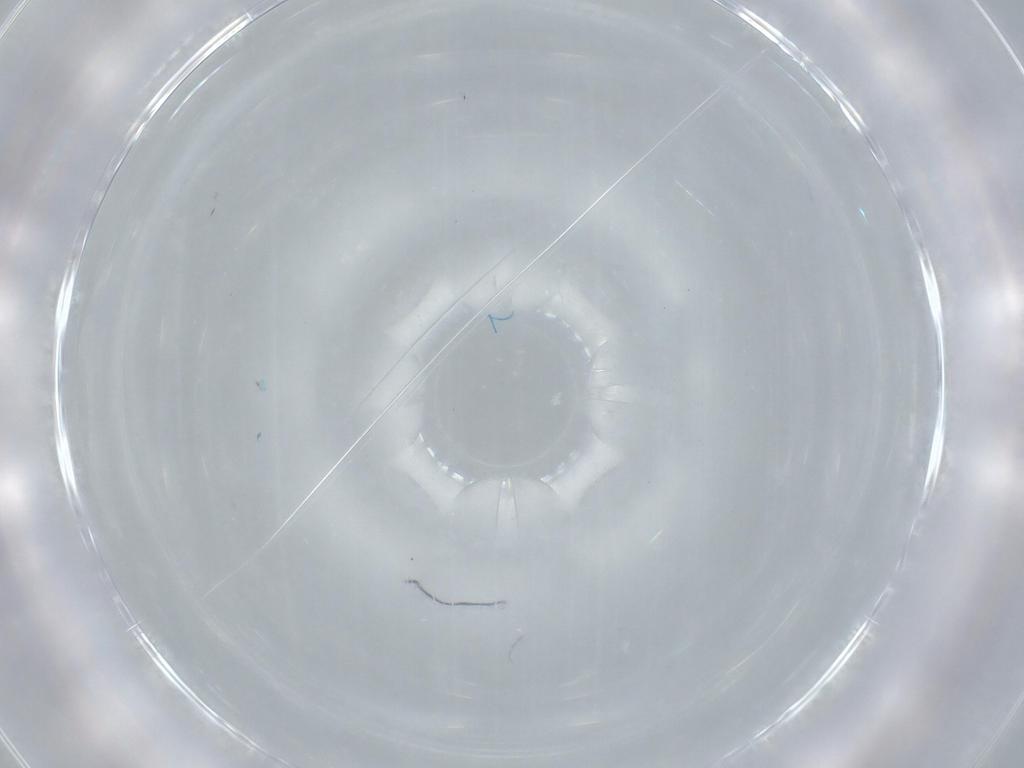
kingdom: Animalia
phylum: Arthropoda
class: Insecta
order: Coleoptera
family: Coccinellidae
